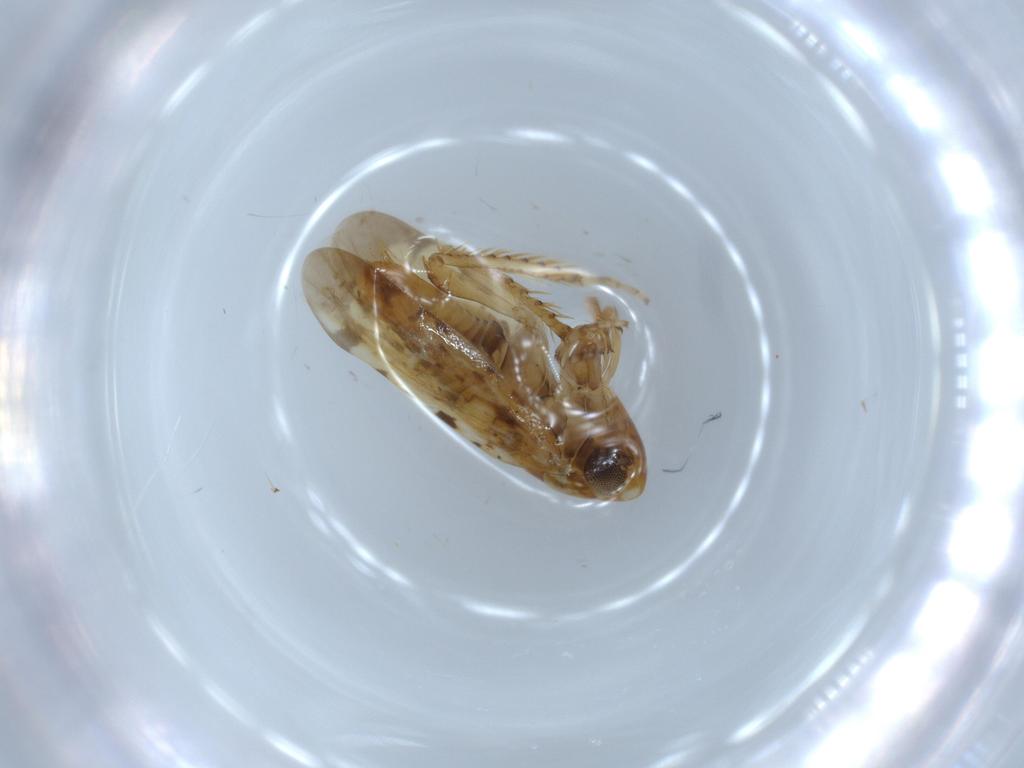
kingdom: Animalia
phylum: Arthropoda
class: Insecta
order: Hemiptera
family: Cicadellidae
